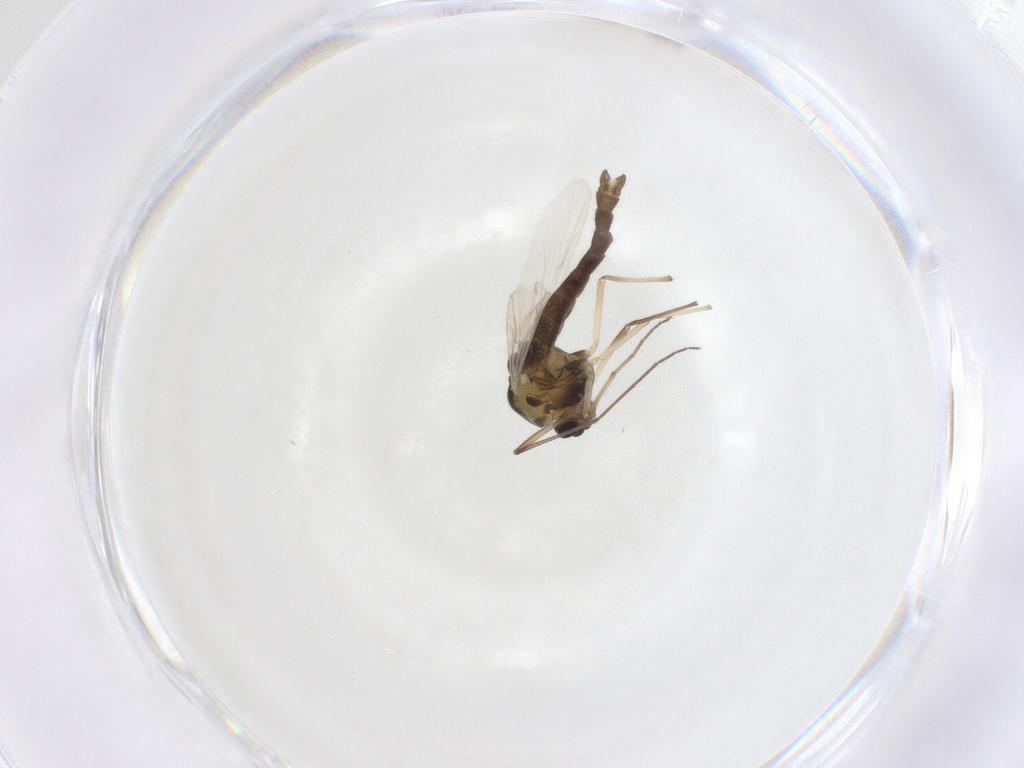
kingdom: Animalia
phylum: Arthropoda
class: Insecta
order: Diptera
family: Chironomidae
